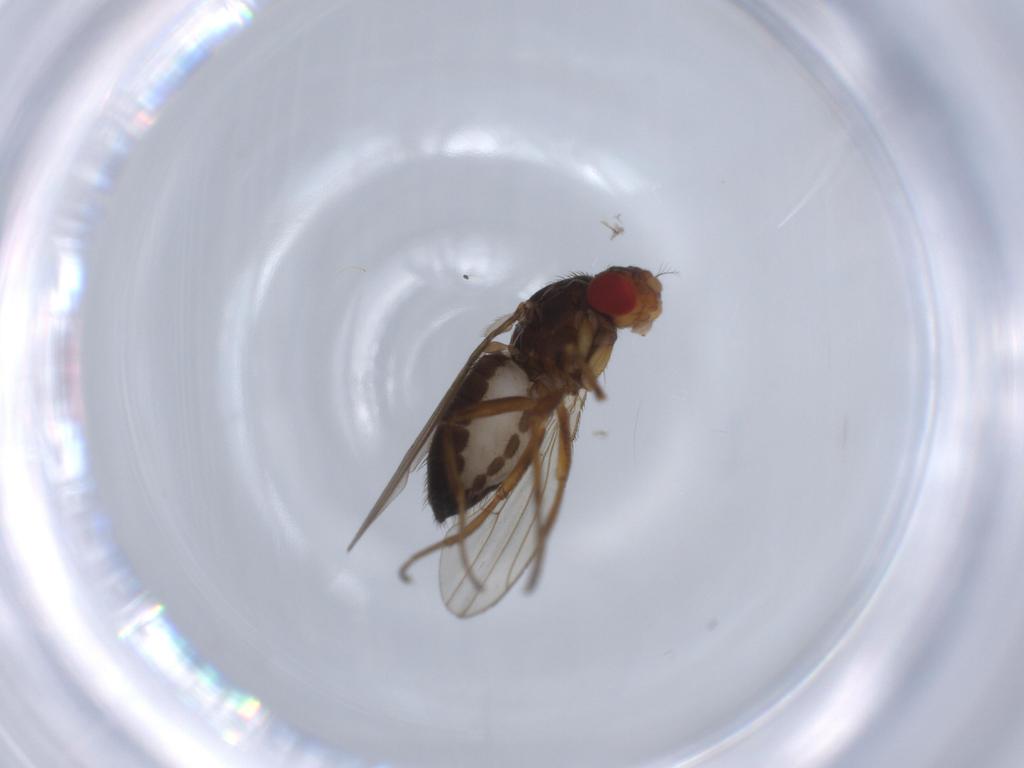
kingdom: Animalia
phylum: Arthropoda
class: Insecta
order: Diptera
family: Drosophilidae
